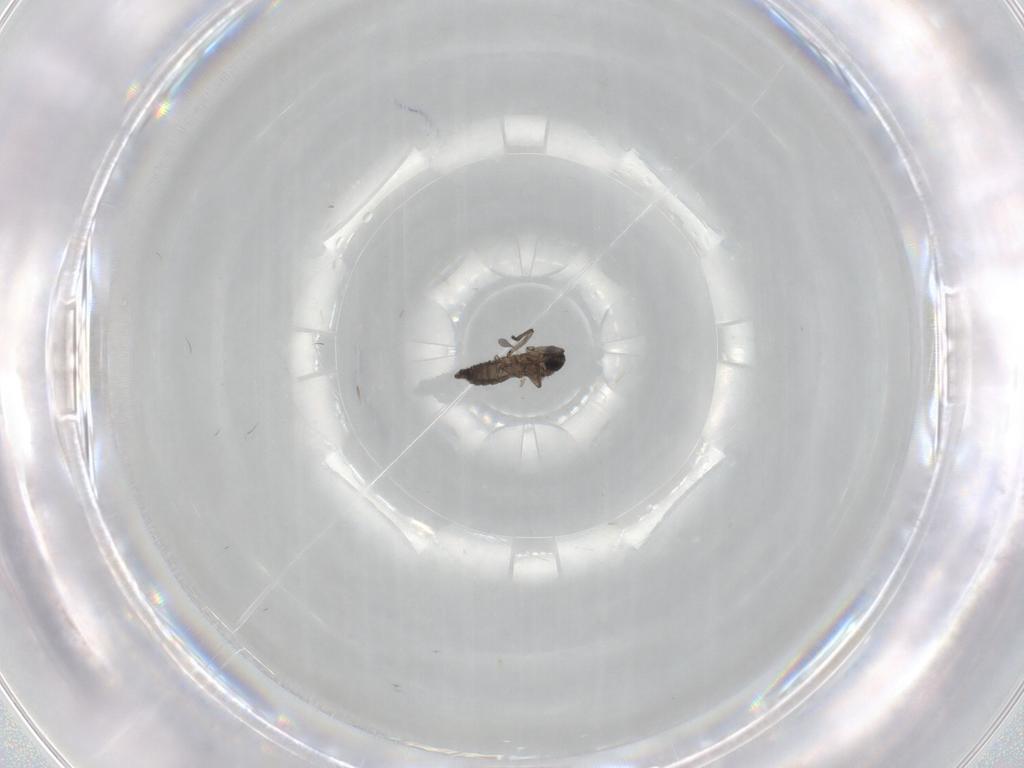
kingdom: Animalia
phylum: Arthropoda
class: Insecta
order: Diptera
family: Sciaridae
